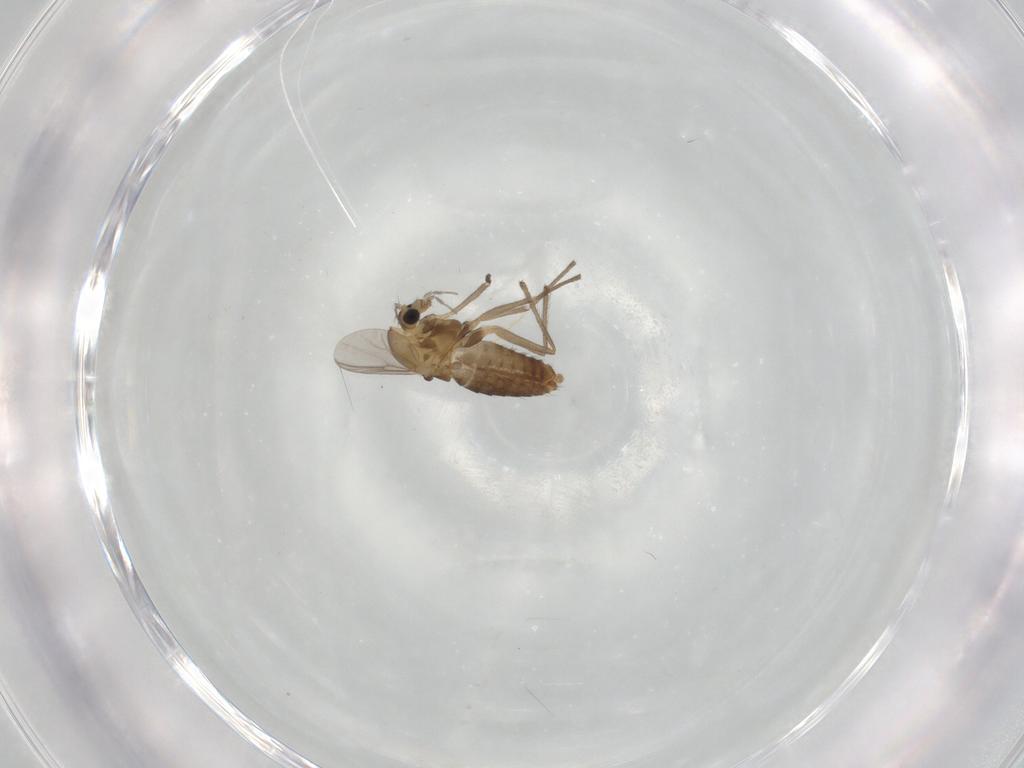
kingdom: Animalia
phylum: Arthropoda
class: Insecta
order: Diptera
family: Chironomidae
